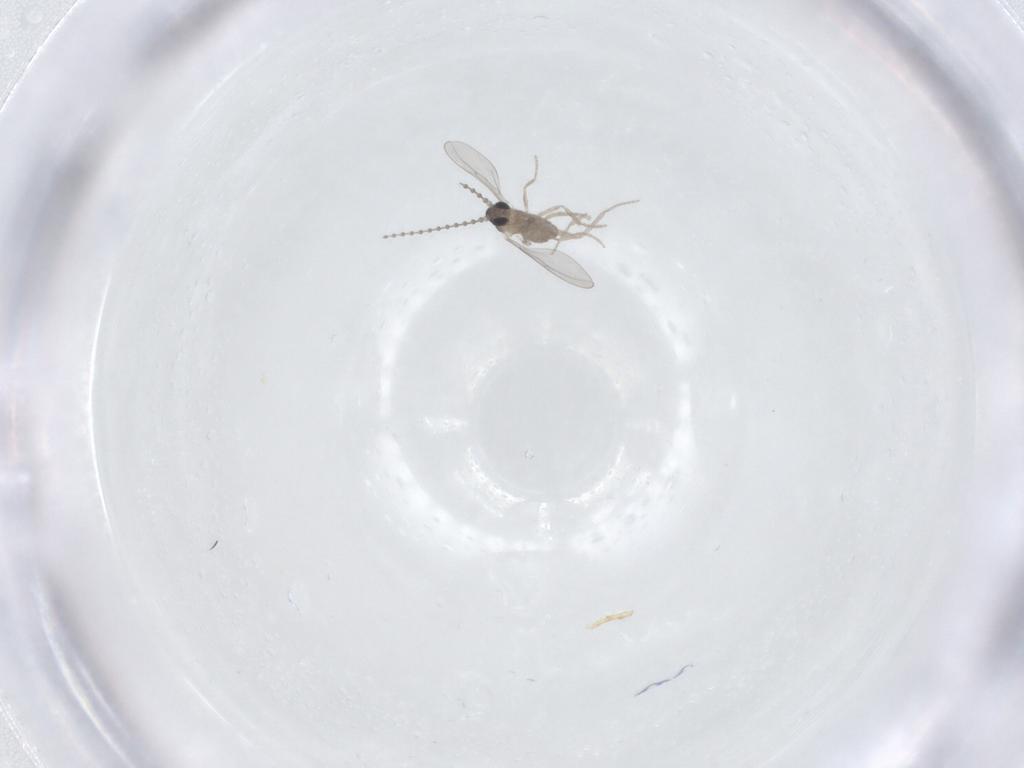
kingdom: Animalia
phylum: Arthropoda
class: Insecta
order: Diptera
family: Cecidomyiidae
